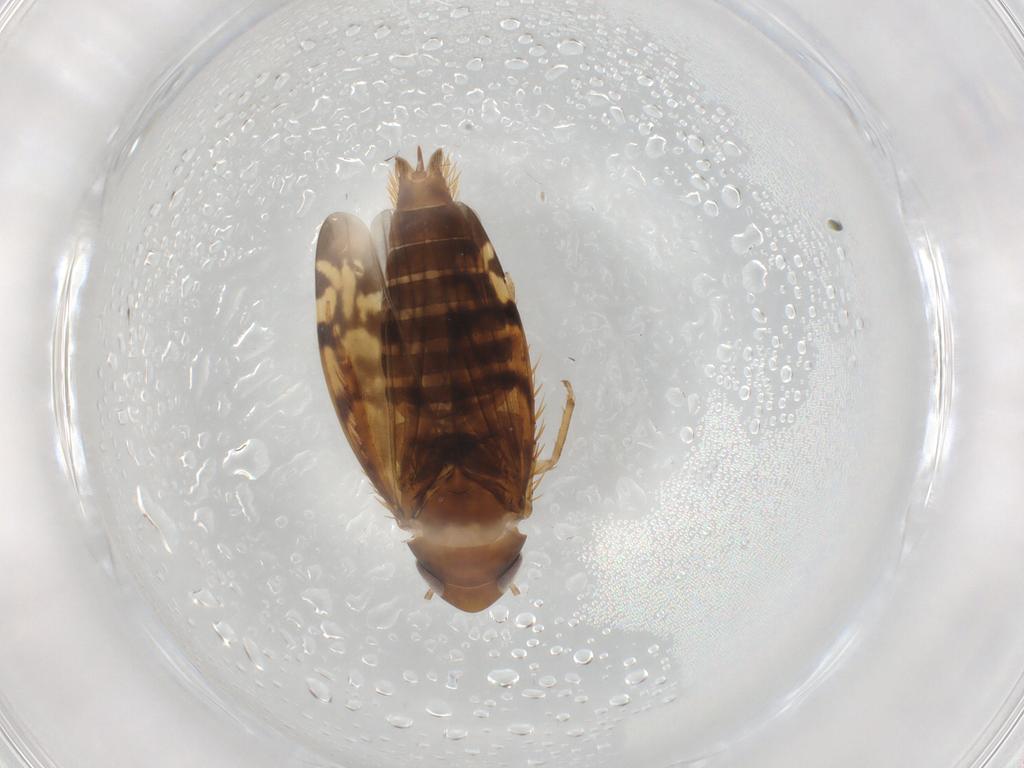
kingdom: Animalia
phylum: Arthropoda
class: Insecta
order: Hemiptera
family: Cicadellidae
